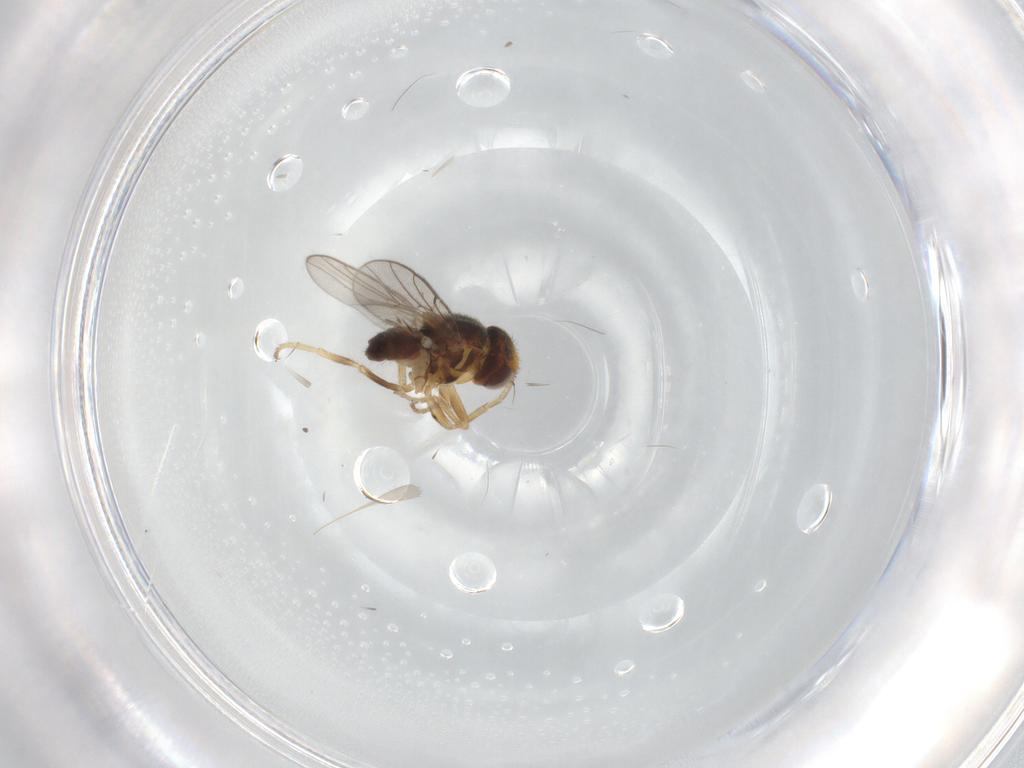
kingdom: Animalia
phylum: Arthropoda
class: Insecta
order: Diptera
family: Chloropidae
